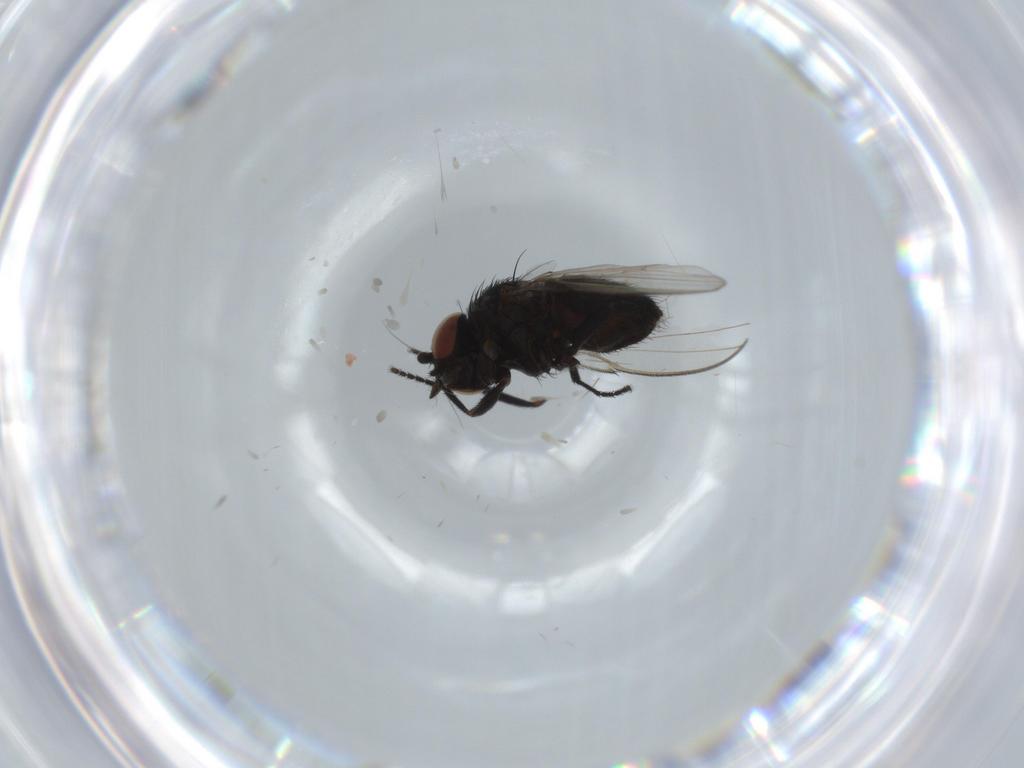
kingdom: Animalia
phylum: Arthropoda
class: Insecta
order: Diptera
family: Milichiidae
